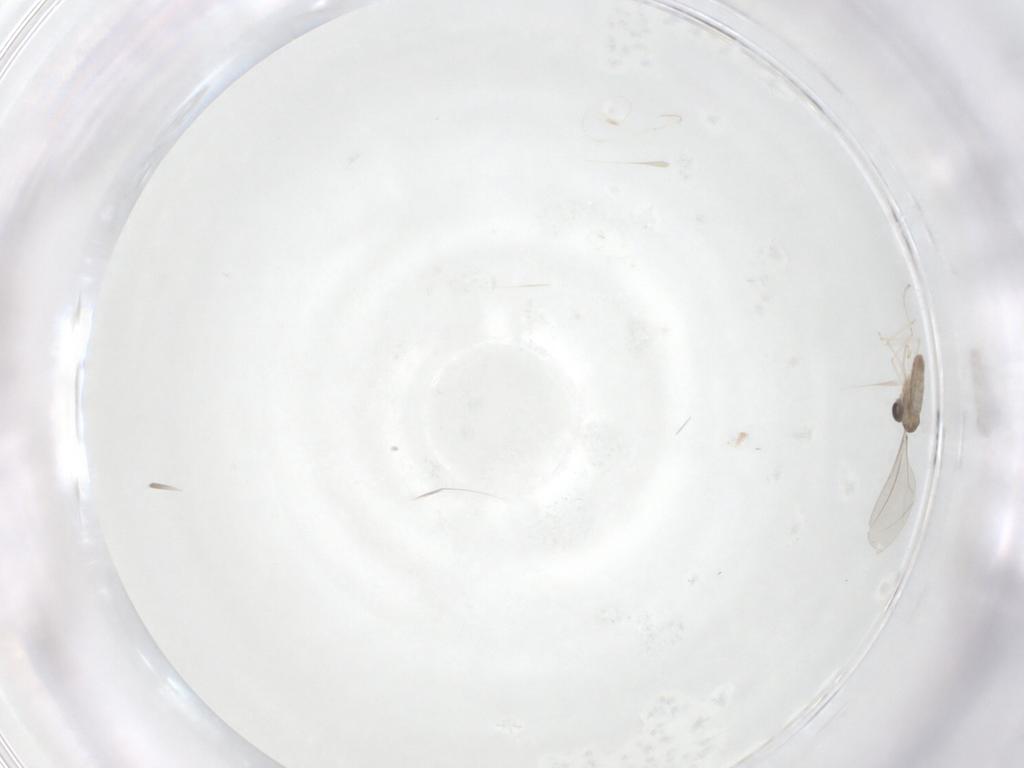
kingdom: Animalia
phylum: Arthropoda
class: Insecta
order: Diptera
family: Cecidomyiidae
